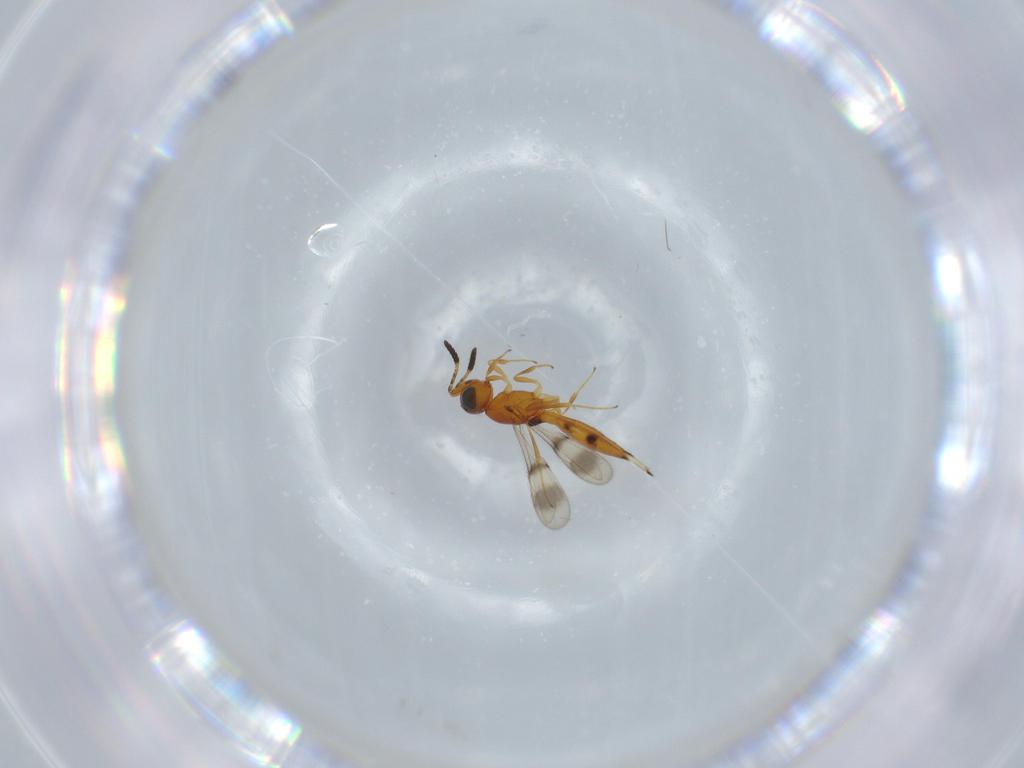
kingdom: Animalia
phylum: Arthropoda
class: Insecta
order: Hymenoptera
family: Scelionidae
